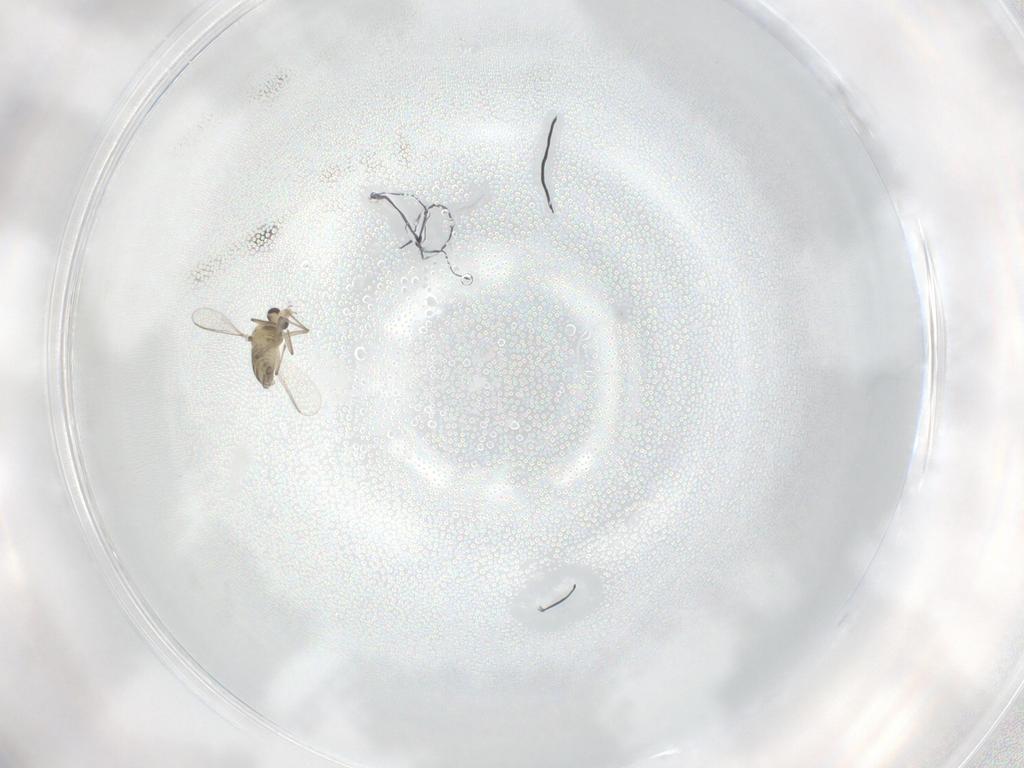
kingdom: Animalia
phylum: Arthropoda
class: Insecta
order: Diptera
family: Chironomidae
